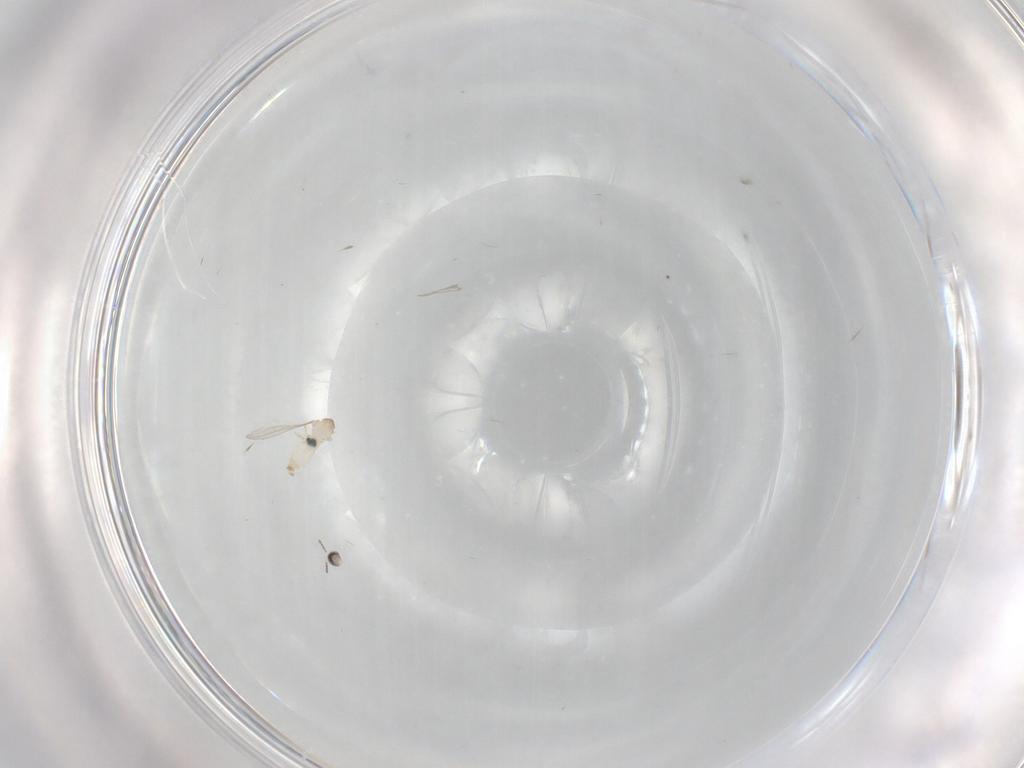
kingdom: Animalia
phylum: Arthropoda
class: Insecta
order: Diptera
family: Cecidomyiidae
